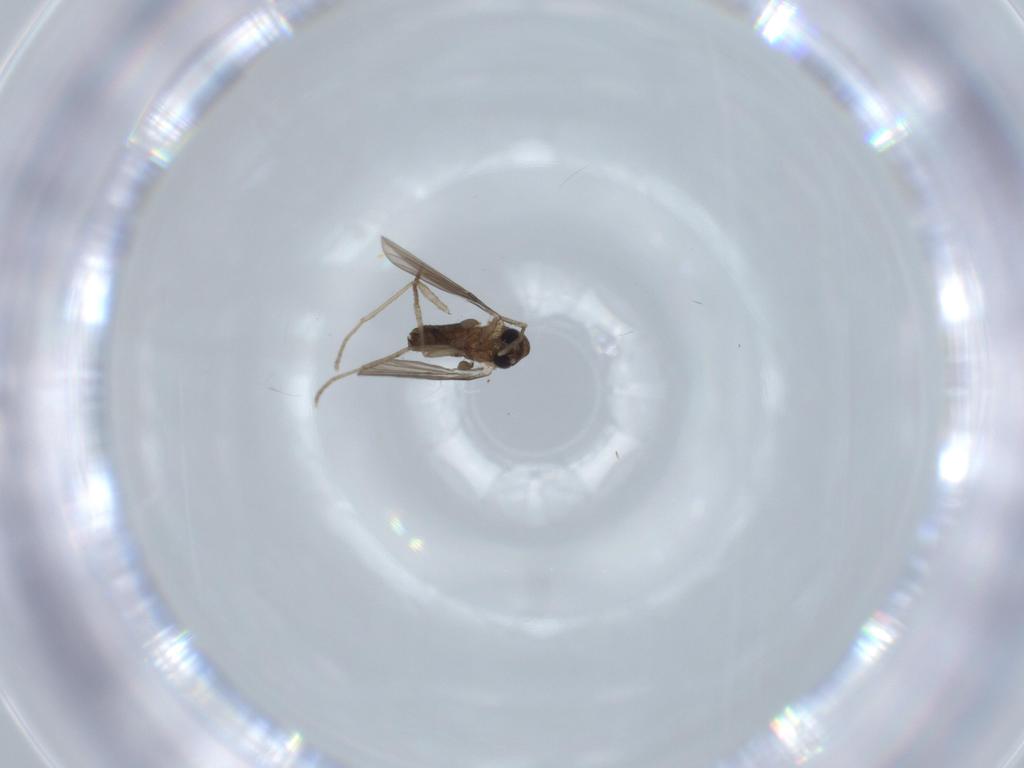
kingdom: Animalia
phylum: Arthropoda
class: Insecta
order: Diptera
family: Psychodidae
